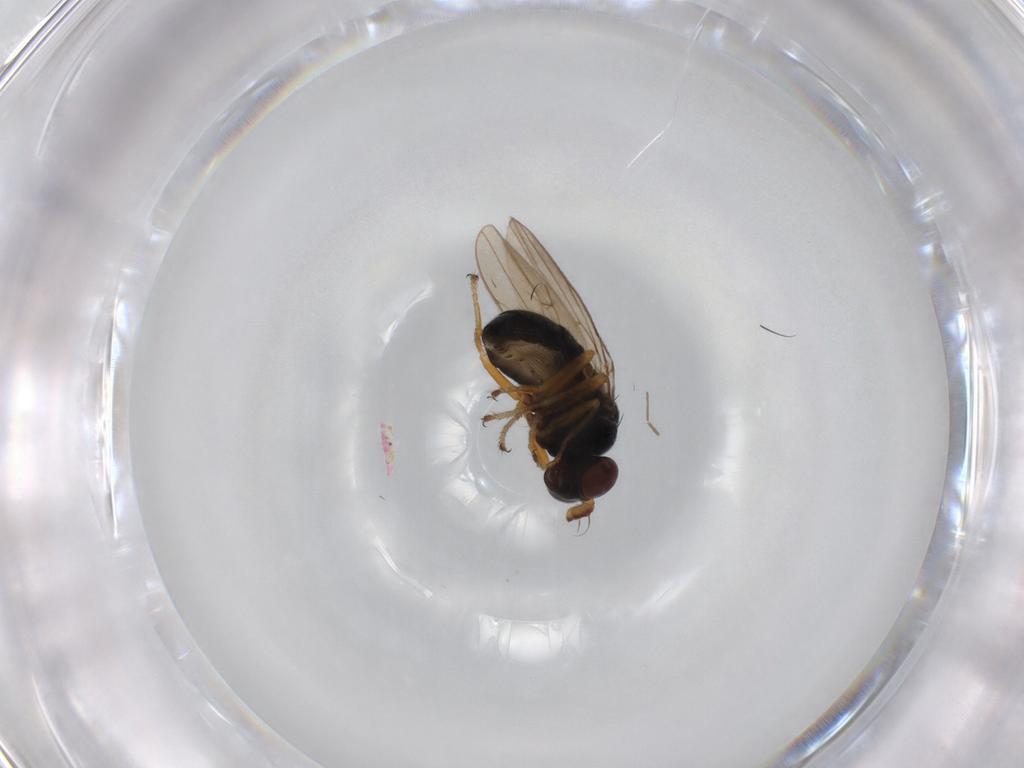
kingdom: Animalia
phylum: Arthropoda
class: Insecta
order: Diptera
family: Ephydridae
